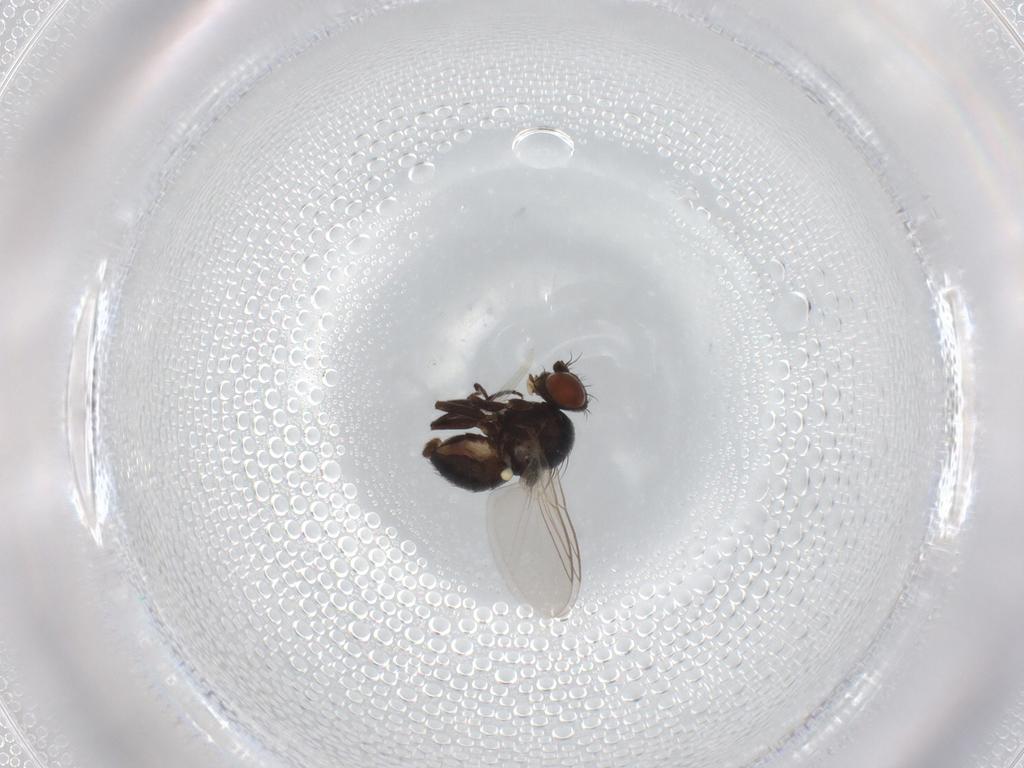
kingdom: Animalia
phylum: Arthropoda
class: Insecta
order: Diptera
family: Agromyzidae
